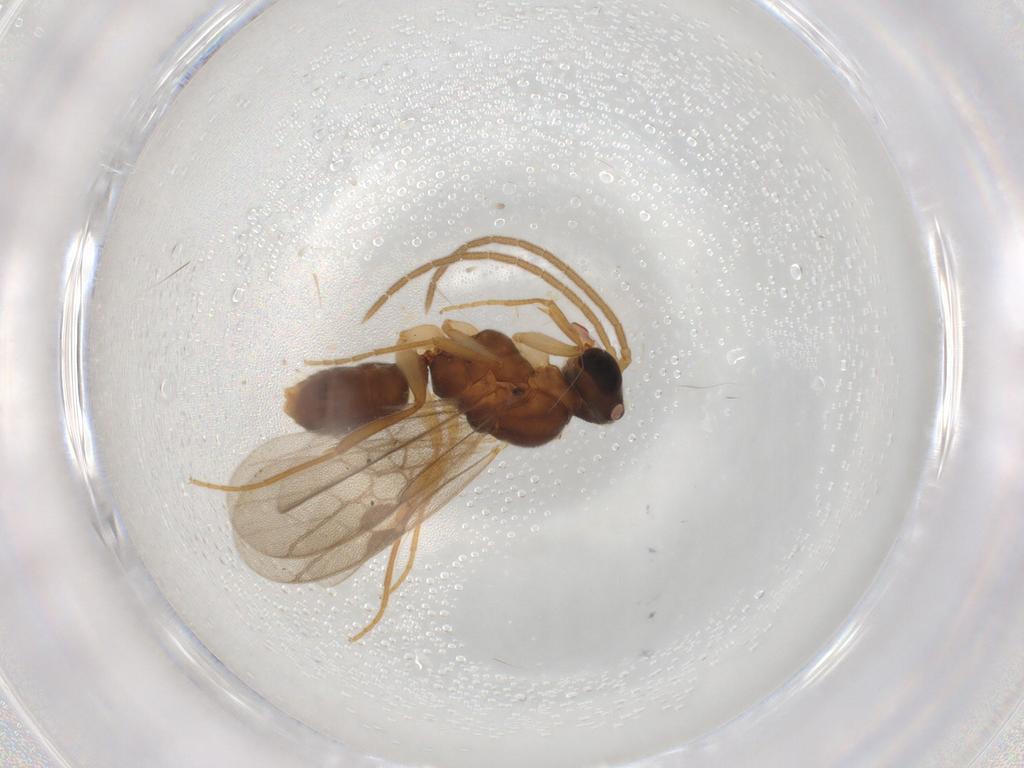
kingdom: Animalia
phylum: Arthropoda
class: Insecta
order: Hymenoptera
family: Formicidae
